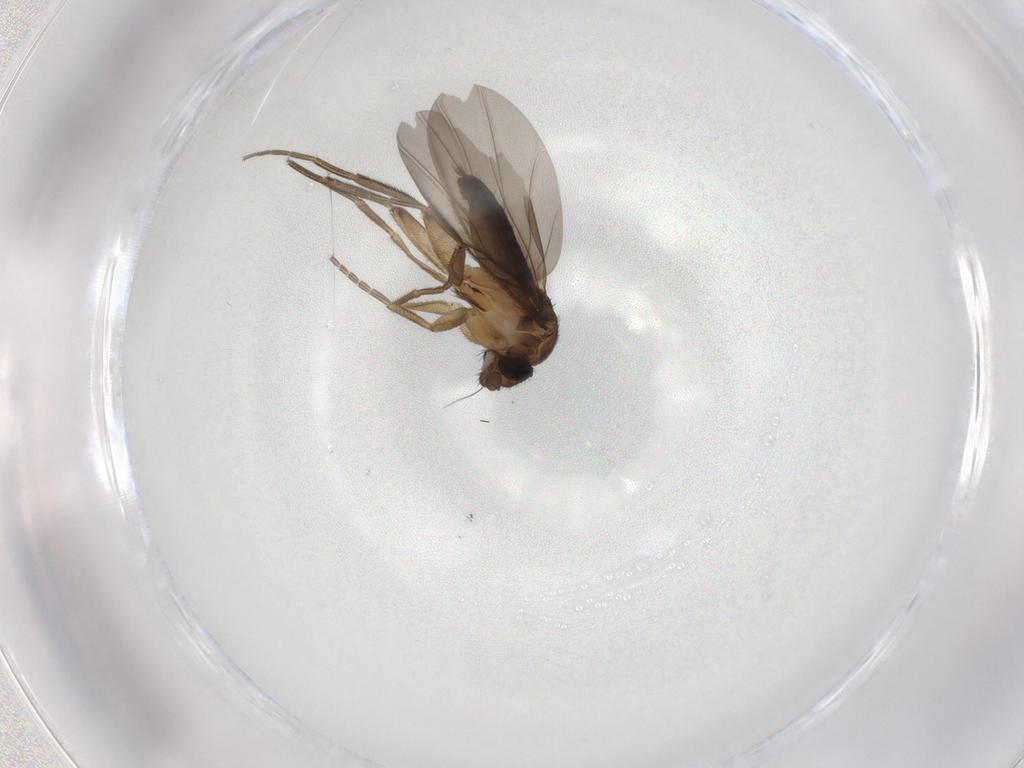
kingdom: Animalia
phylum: Arthropoda
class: Insecta
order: Diptera
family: Phoridae
